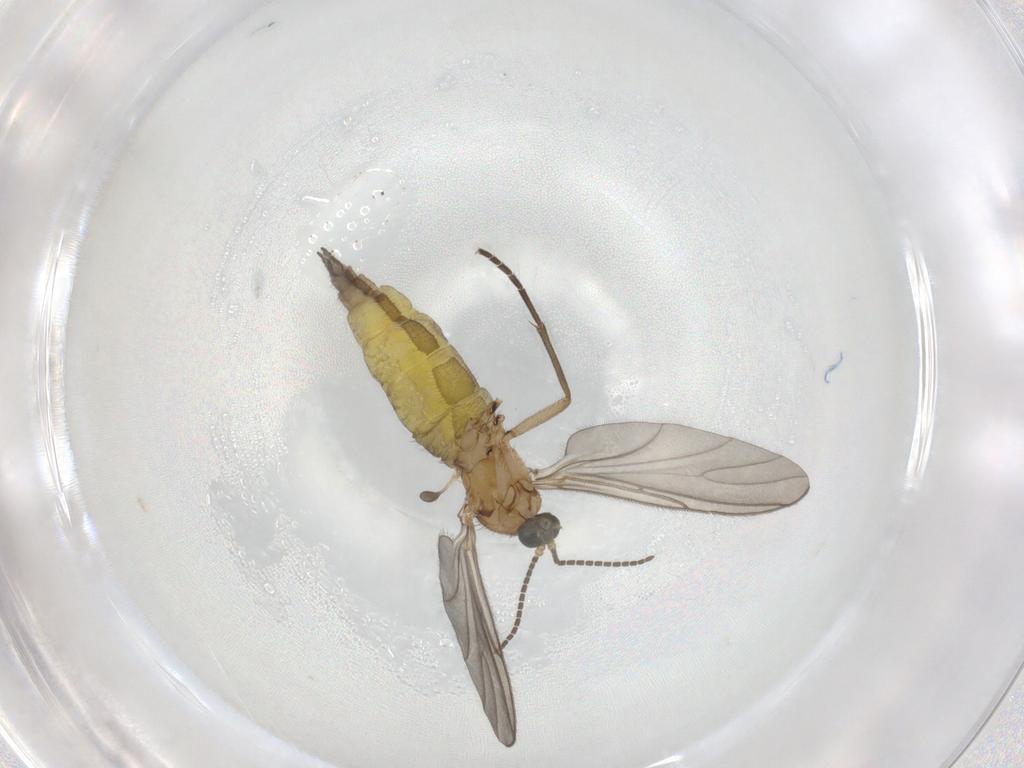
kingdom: Animalia
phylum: Arthropoda
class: Insecta
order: Diptera
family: Sciaridae
